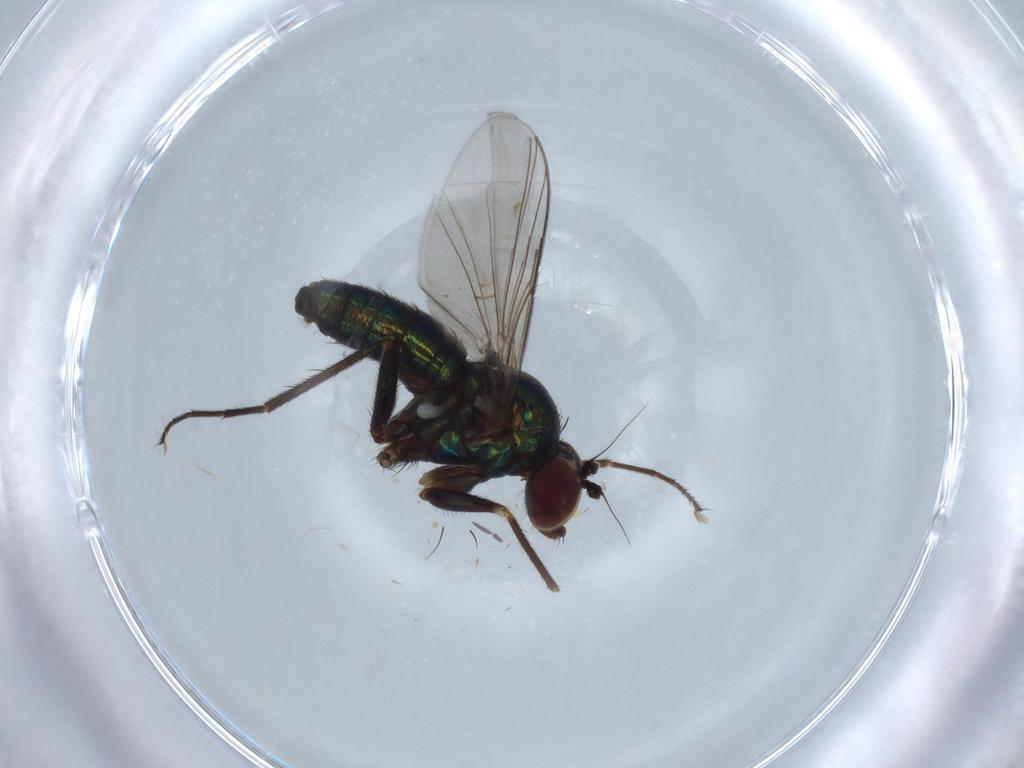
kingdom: Animalia
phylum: Arthropoda
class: Insecta
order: Diptera
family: Dolichopodidae
